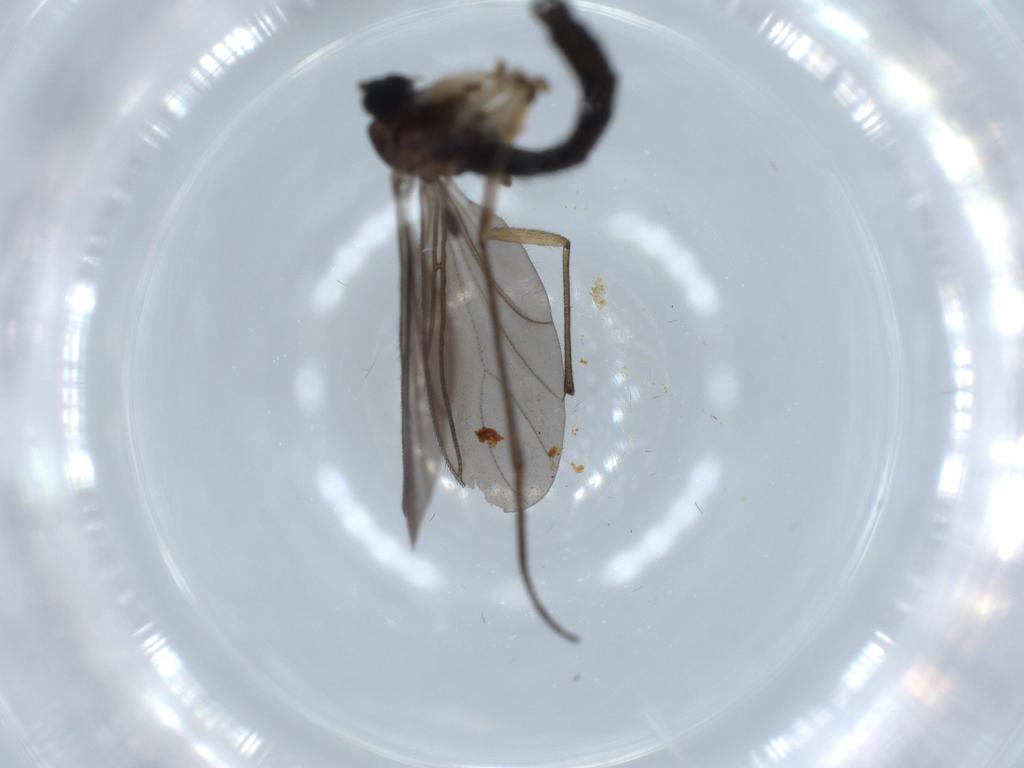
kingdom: Animalia
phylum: Arthropoda
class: Insecta
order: Diptera
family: Sciaridae
